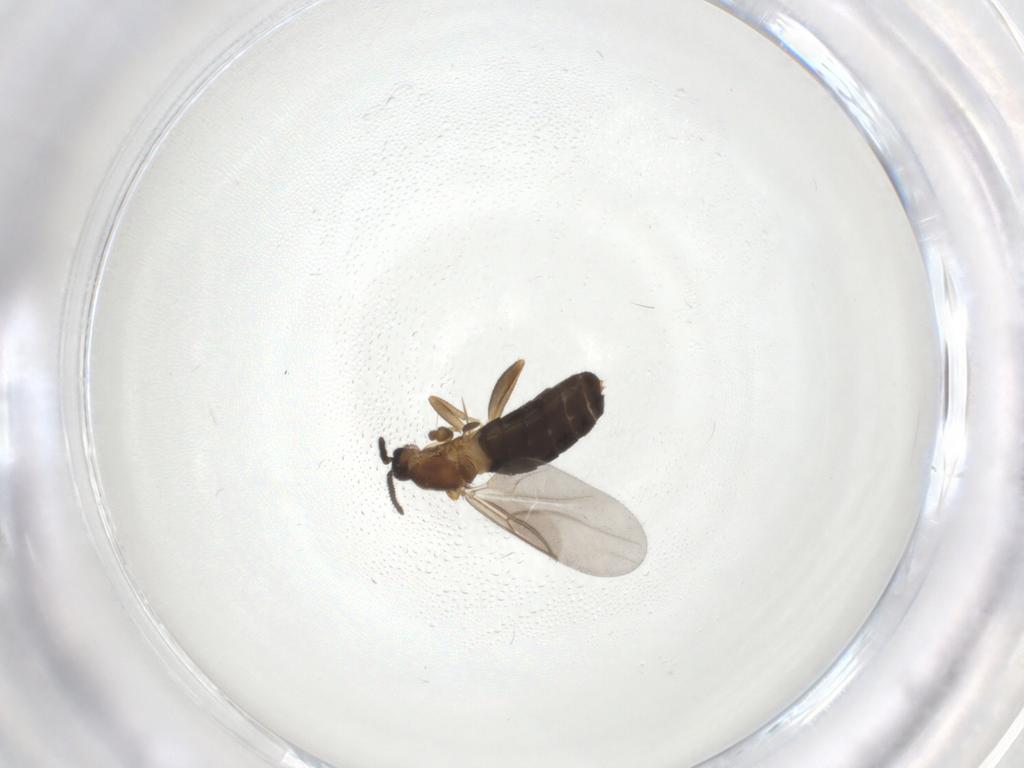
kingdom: Animalia
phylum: Arthropoda
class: Insecta
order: Diptera
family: Scatopsidae
